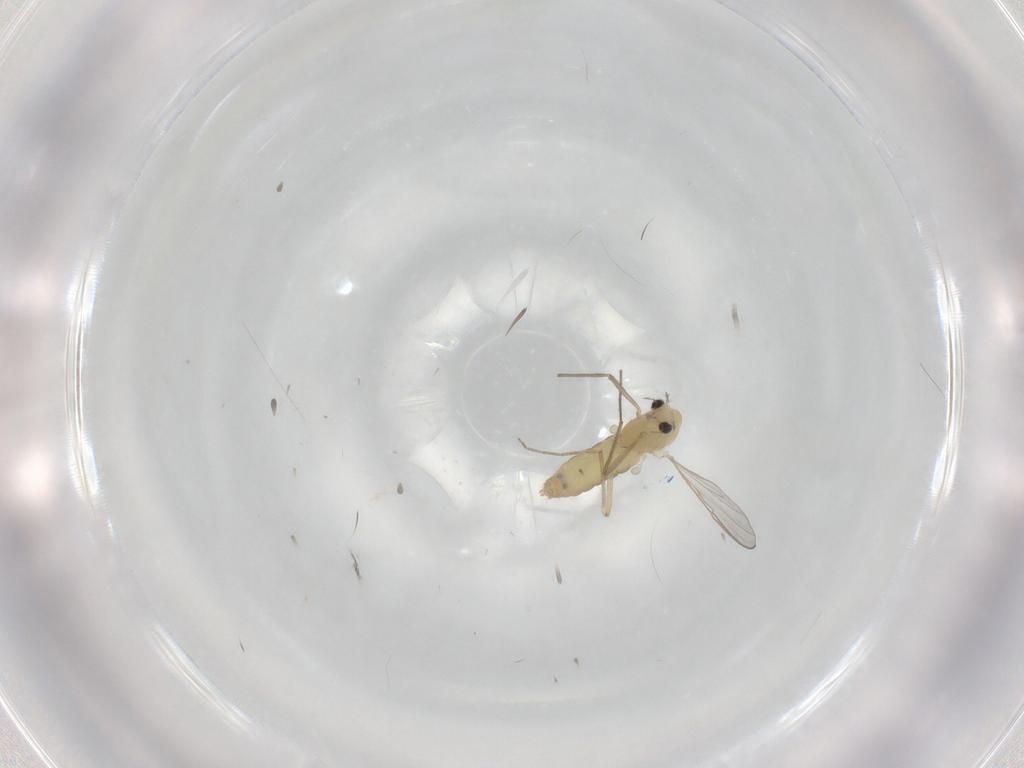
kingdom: Animalia
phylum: Arthropoda
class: Insecta
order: Diptera
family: Chironomidae
